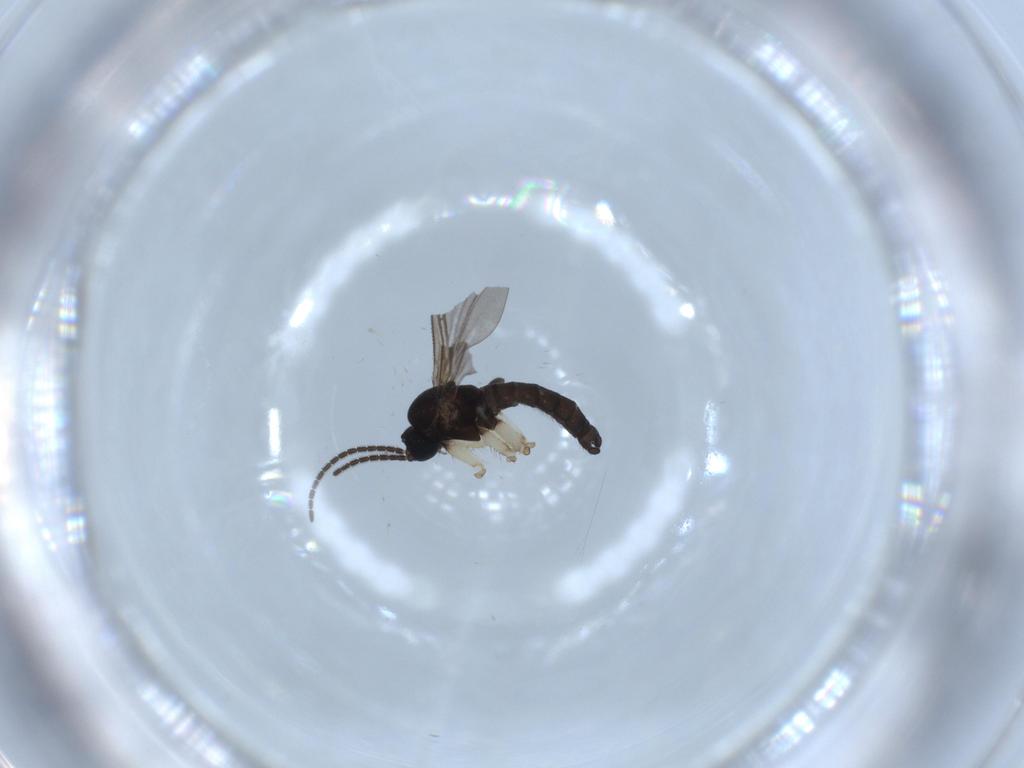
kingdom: Animalia
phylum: Arthropoda
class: Insecta
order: Diptera
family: Sciaridae
